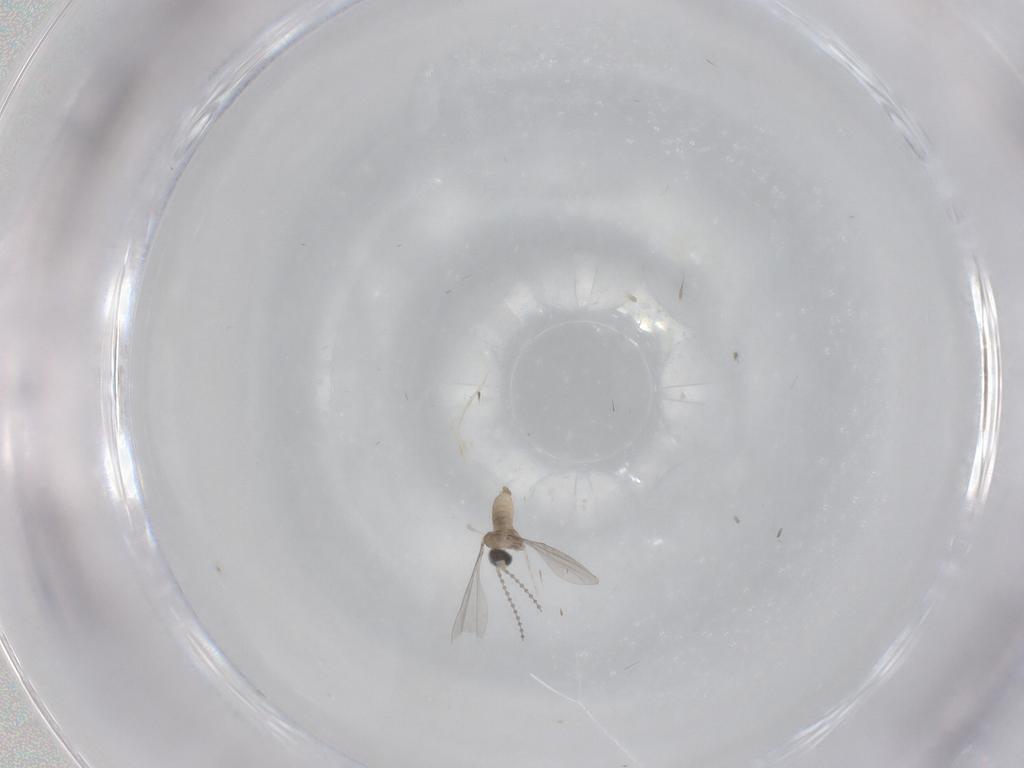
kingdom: Animalia
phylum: Arthropoda
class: Insecta
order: Diptera
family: Cecidomyiidae
